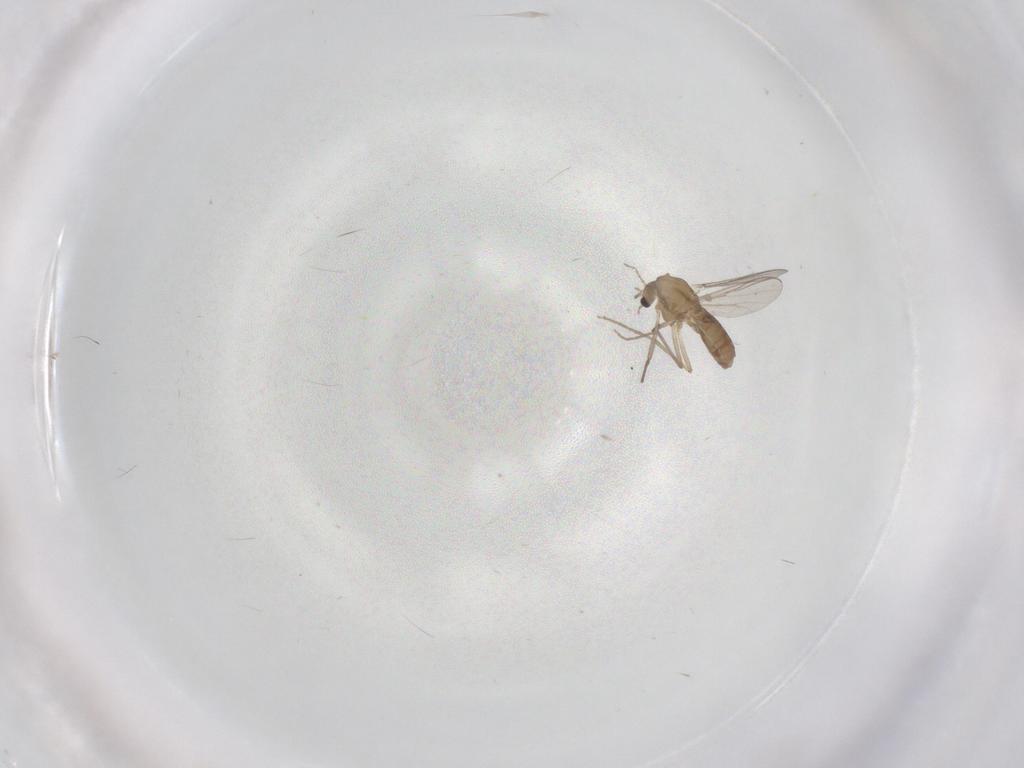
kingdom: Animalia
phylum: Arthropoda
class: Insecta
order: Diptera
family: Chironomidae
